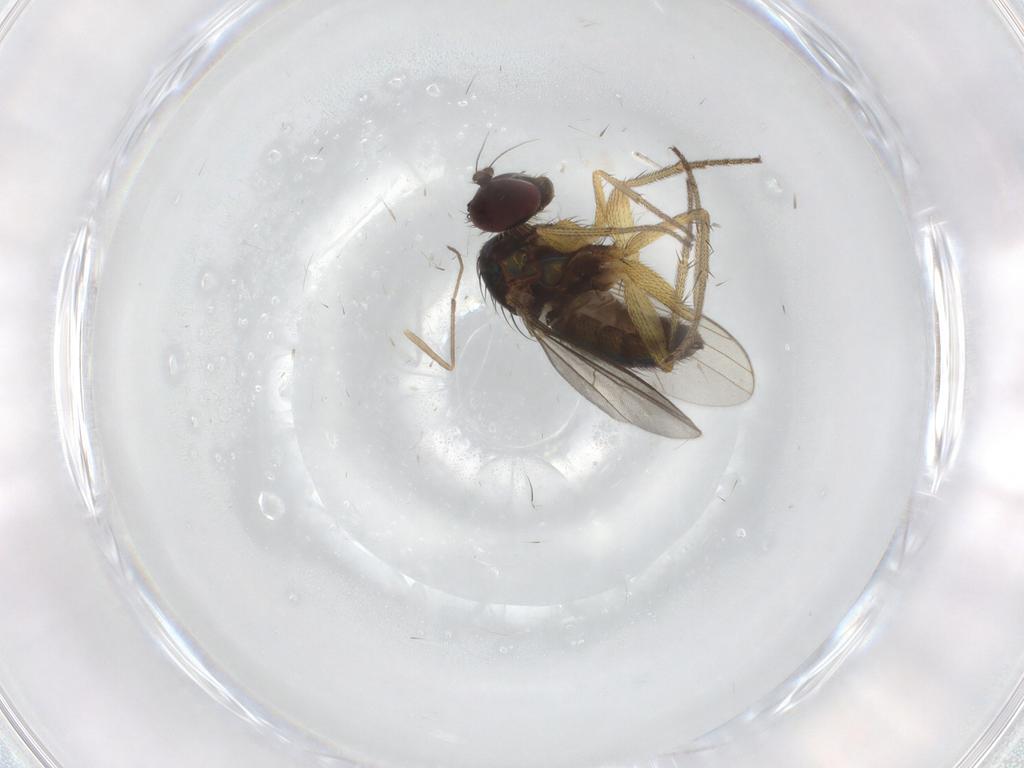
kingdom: Animalia
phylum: Arthropoda
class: Insecta
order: Diptera
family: Dolichopodidae
